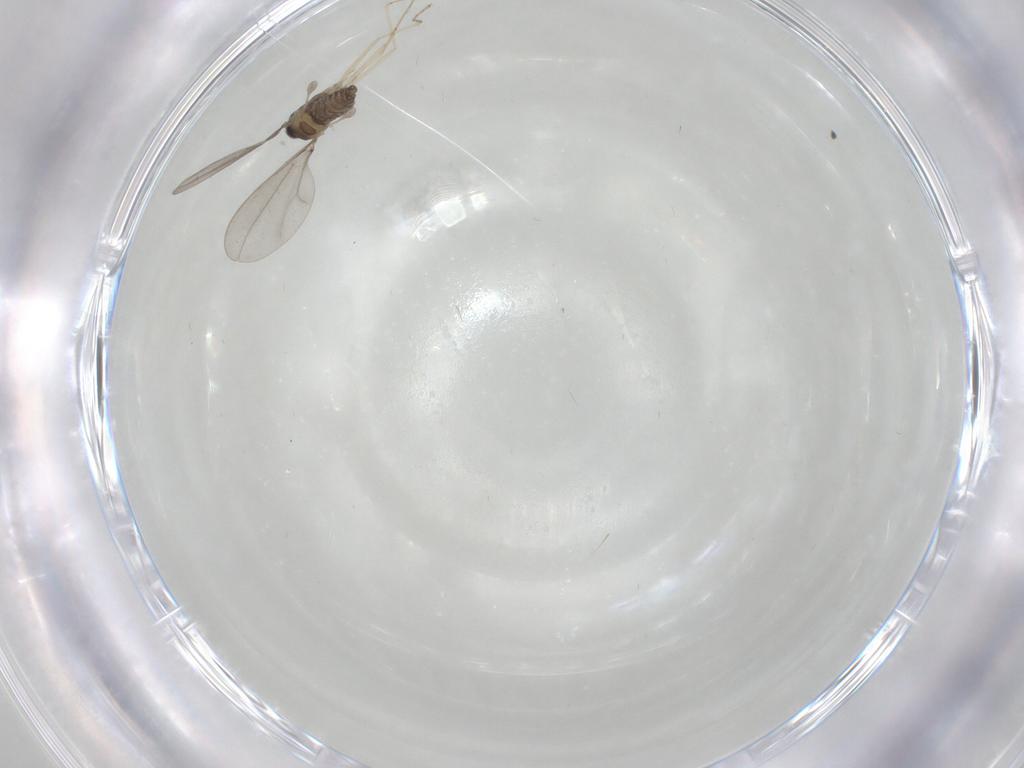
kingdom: Animalia
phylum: Arthropoda
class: Insecta
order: Diptera
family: Cecidomyiidae
